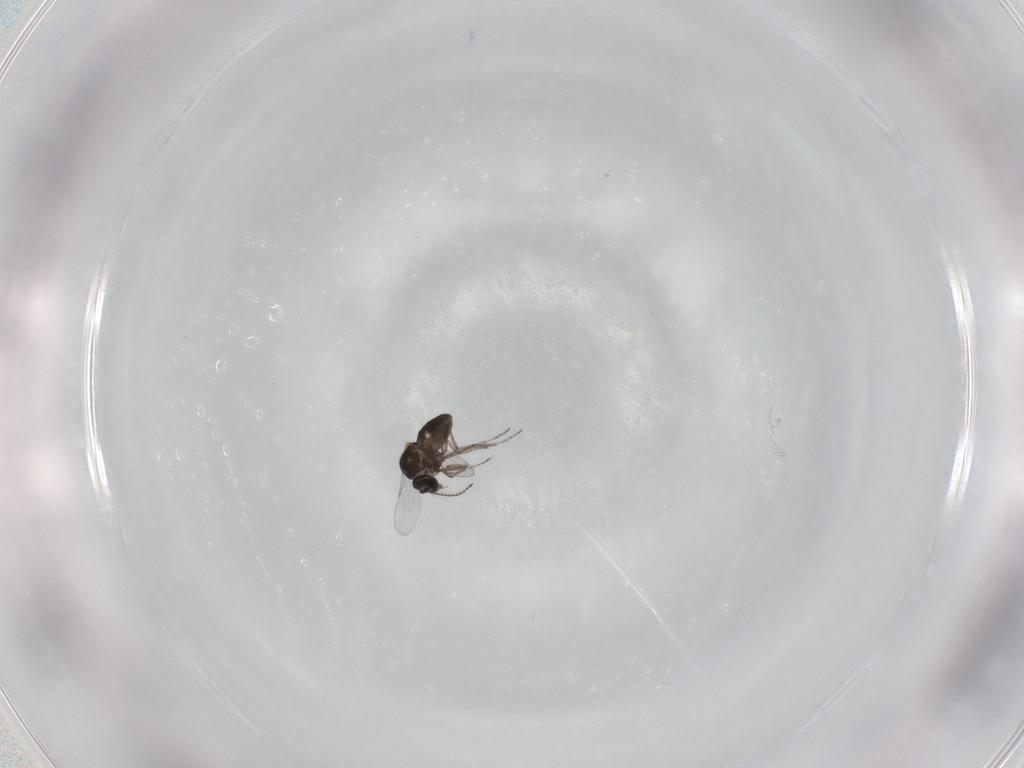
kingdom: Animalia
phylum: Arthropoda
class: Insecta
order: Diptera
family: Ceratopogonidae
